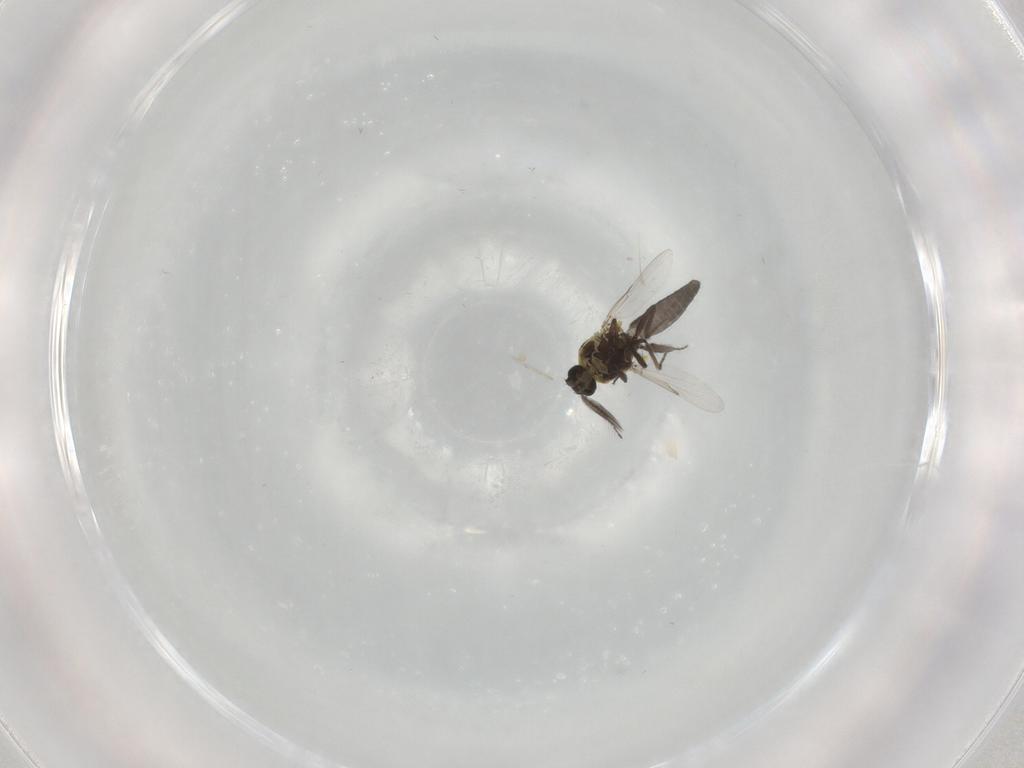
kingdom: Animalia
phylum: Arthropoda
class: Insecta
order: Diptera
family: Ceratopogonidae
